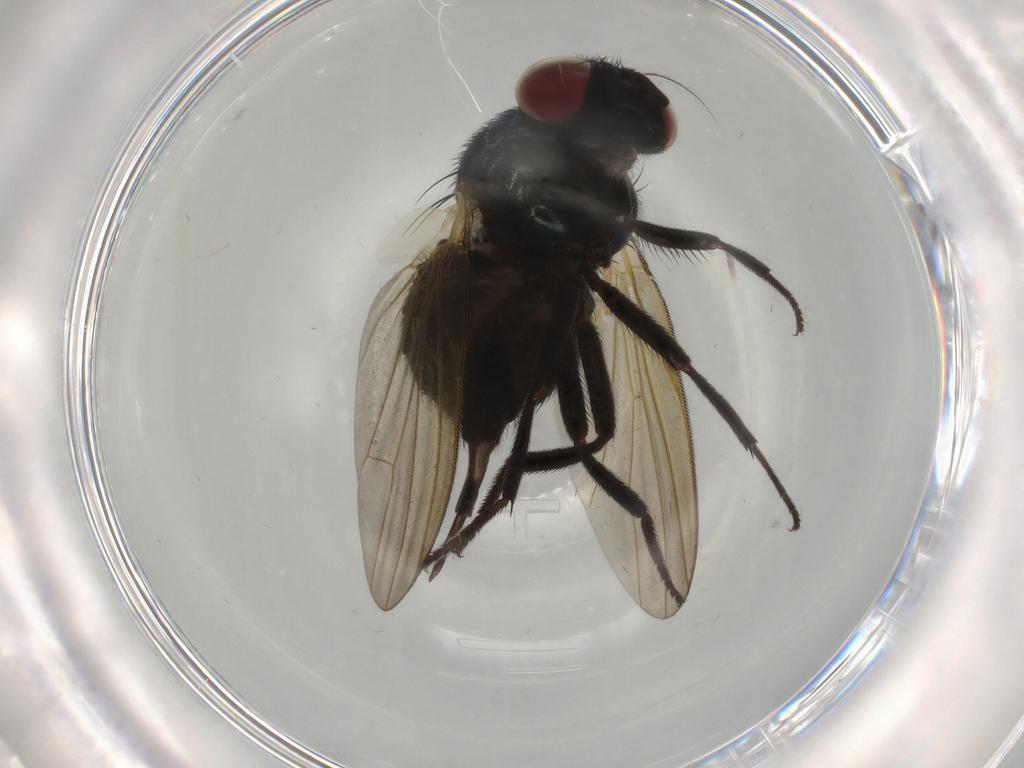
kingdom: Animalia
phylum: Arthropoda
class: Insecta
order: Diptera
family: Lonchaeidae
